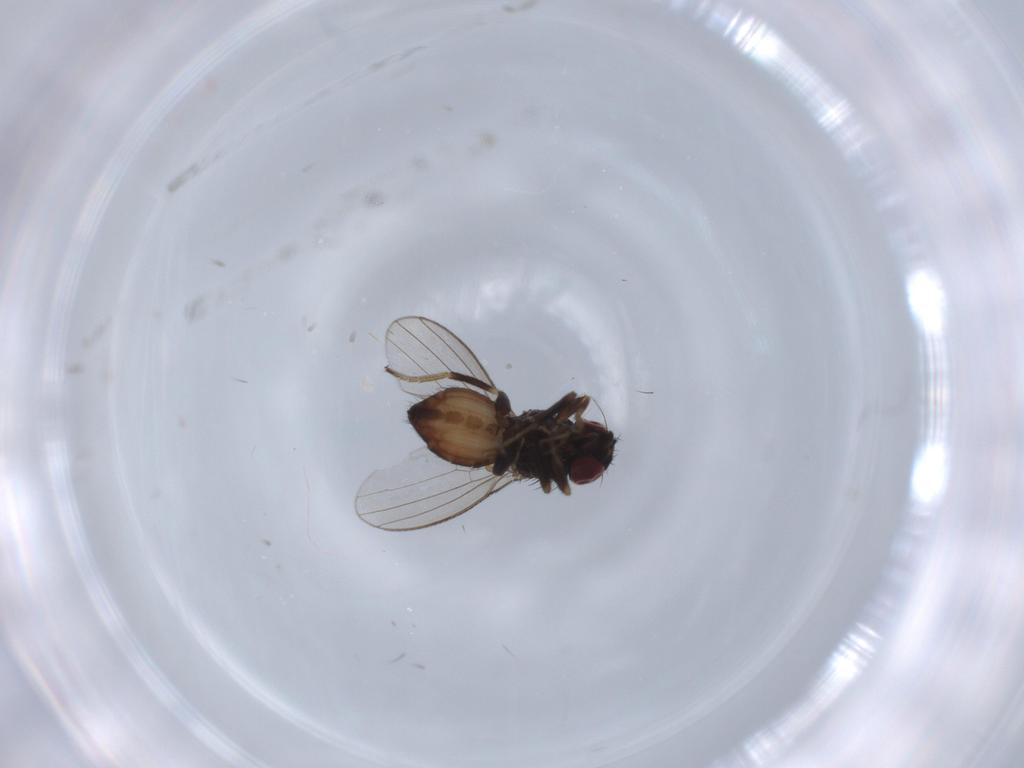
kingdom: Animalia
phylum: Arthropoda
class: Insecta
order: Diptera
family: Milichiidae
